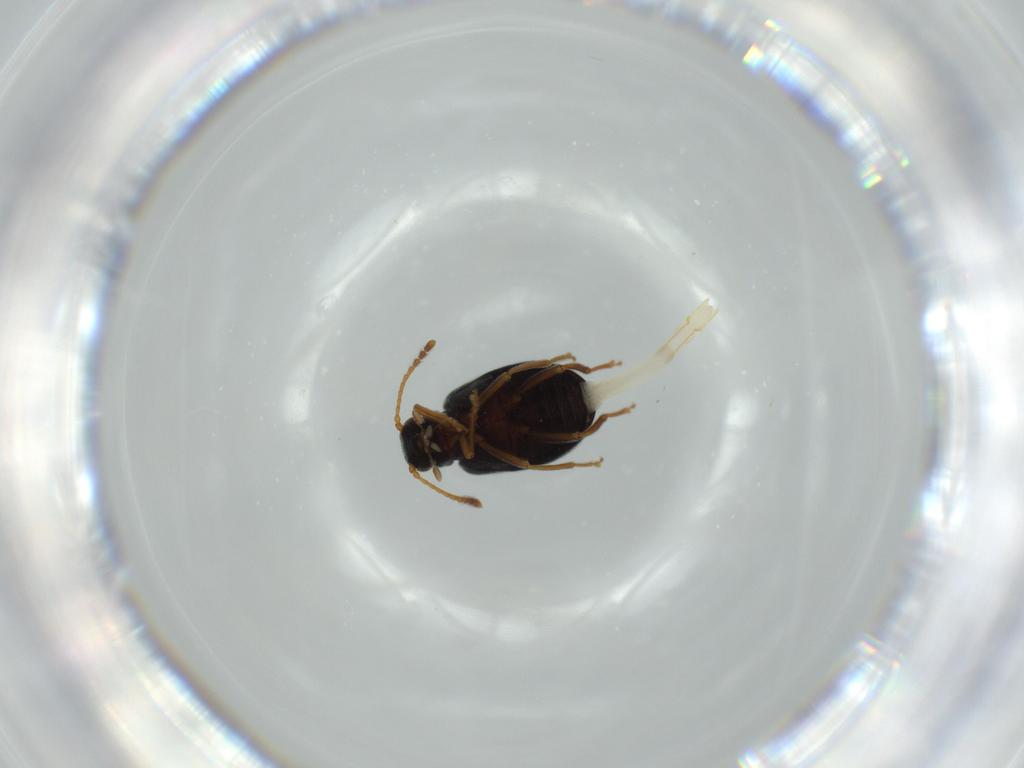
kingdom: Animalia
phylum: Arthropoda
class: Insecta
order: Coleoptera
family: Aderidae
